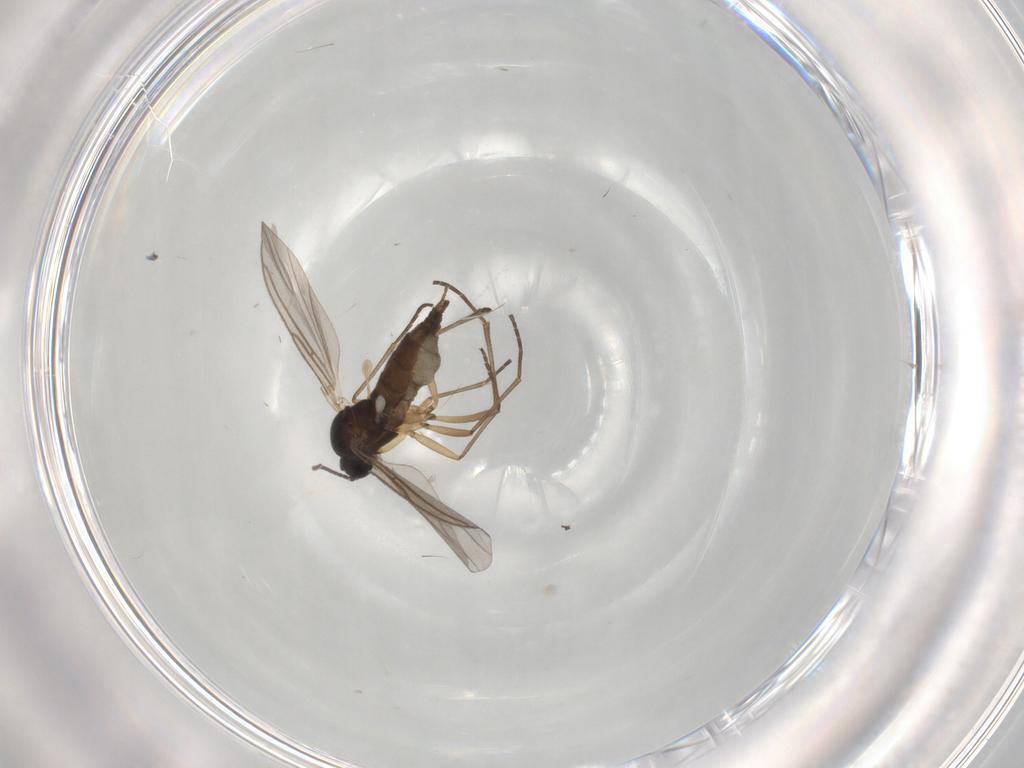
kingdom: Animalia
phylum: Arthropoda
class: Insecta
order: Diptera
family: Sciaridae
